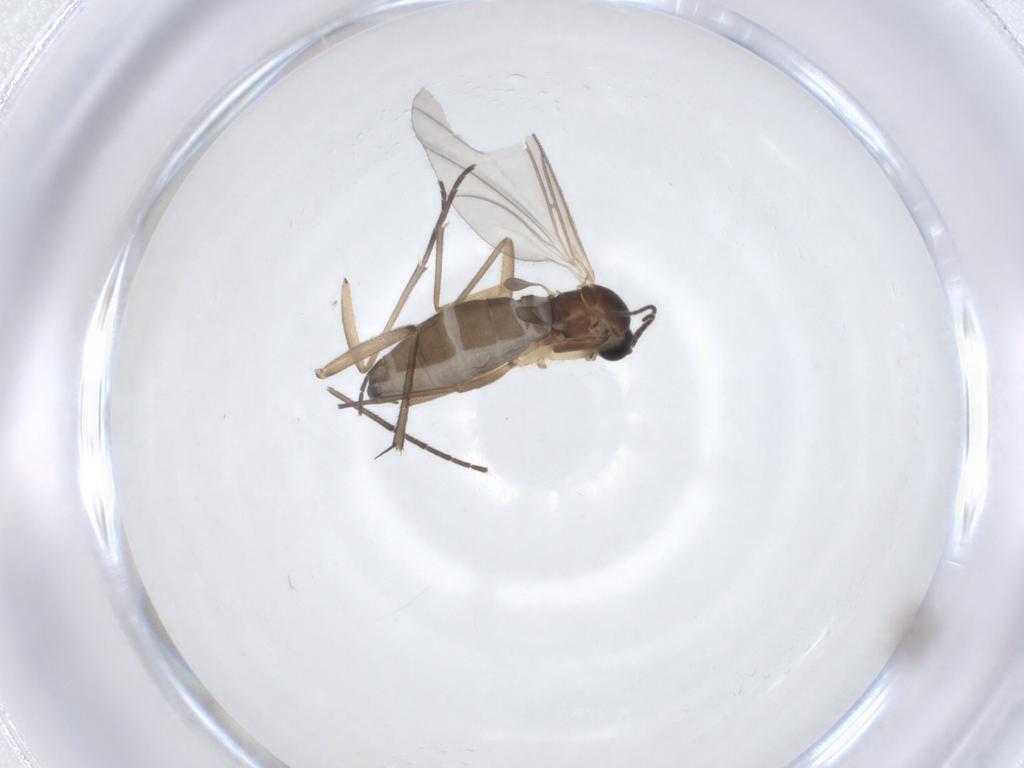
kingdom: Animalia
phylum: Arthropoda
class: Insecta
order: Diptera
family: Sciaridae
